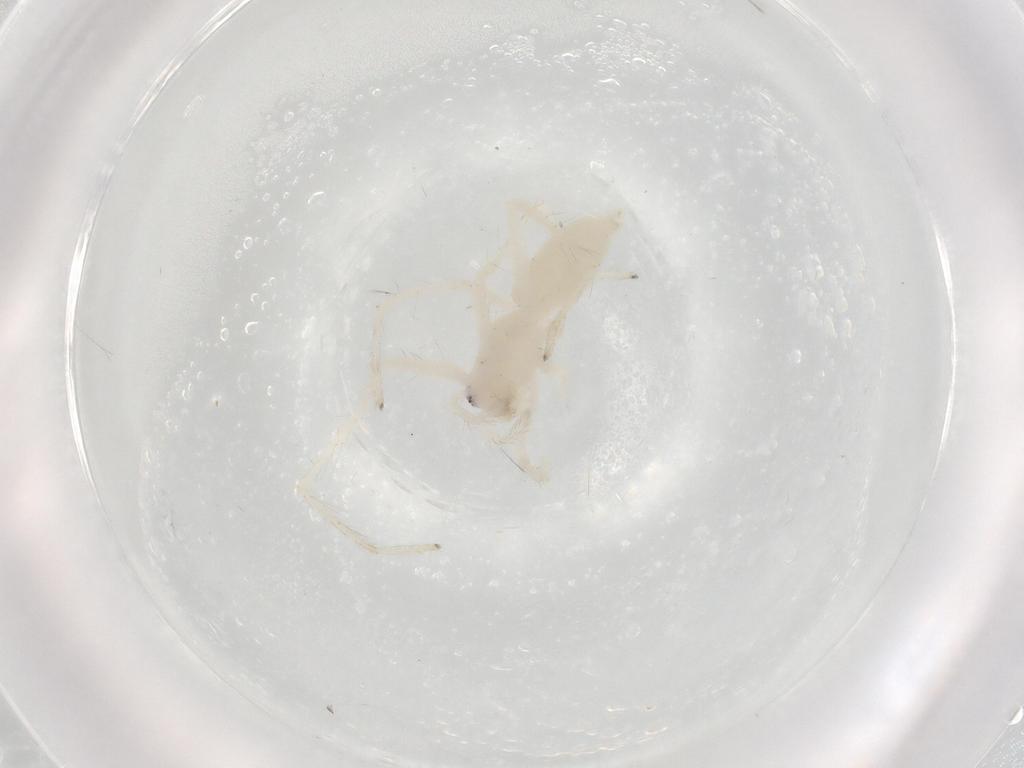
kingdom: Animalia
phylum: Arthropoda
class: Arachnida
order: Araneae
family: Anyphaenidae
